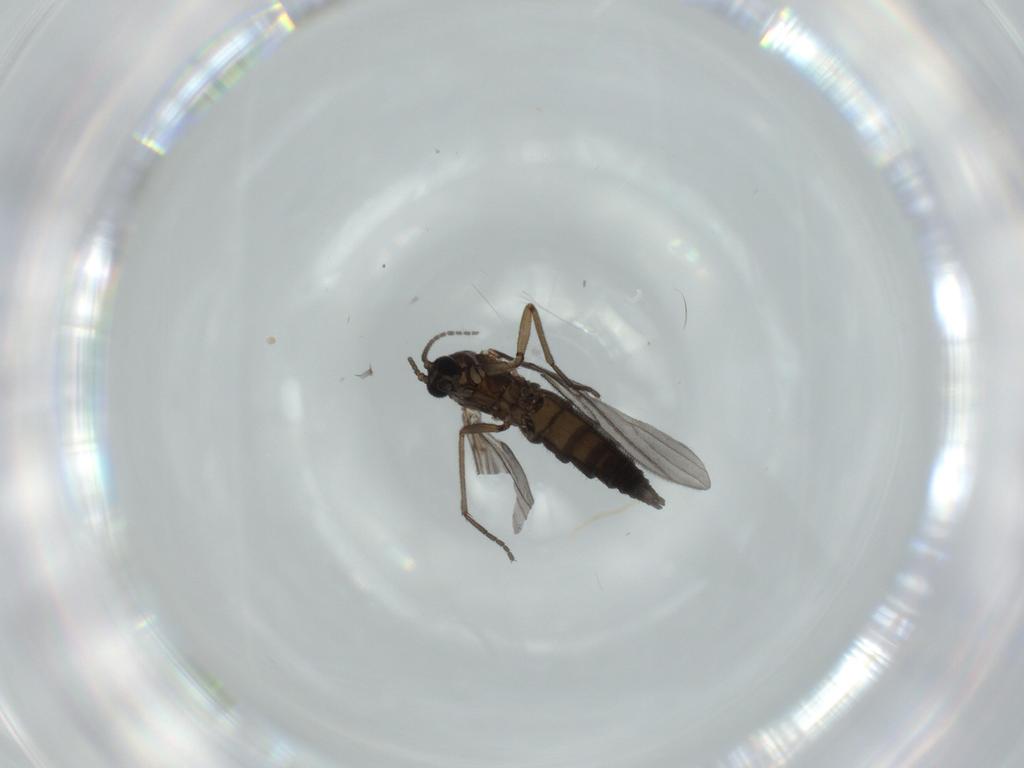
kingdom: Animalia
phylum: Arthropoda
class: Insecta
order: Diptera
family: Sciaridae
